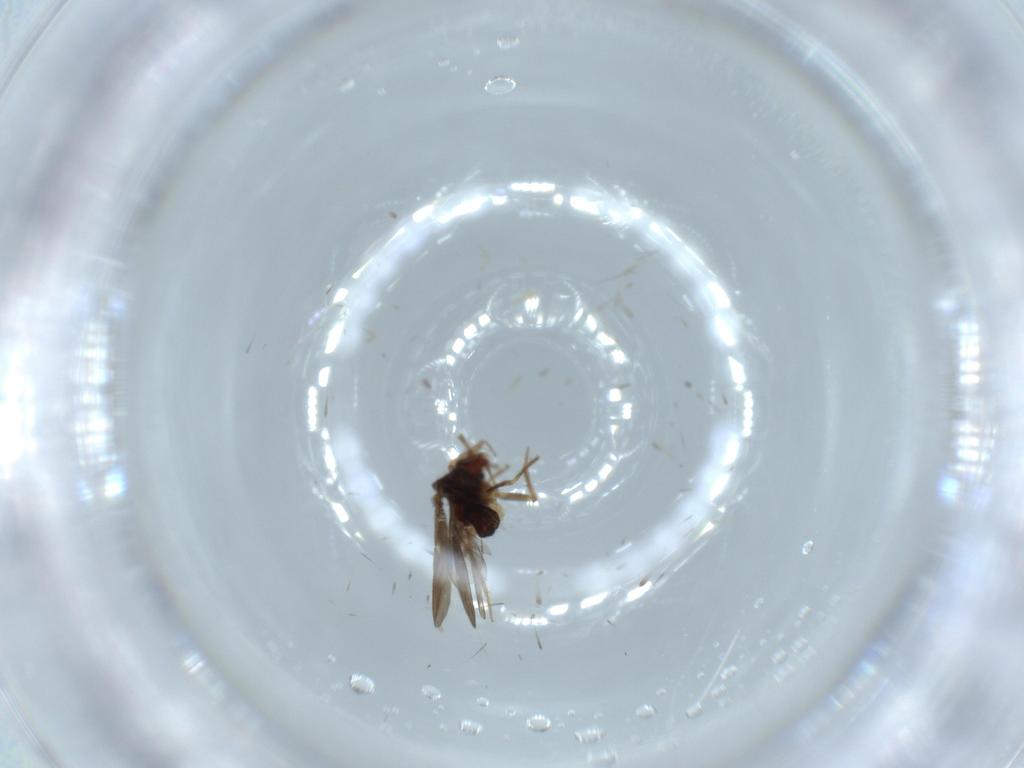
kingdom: Animalia
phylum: Arthropoda
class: Insecta
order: Hemiptera
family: Ceratocombidae
